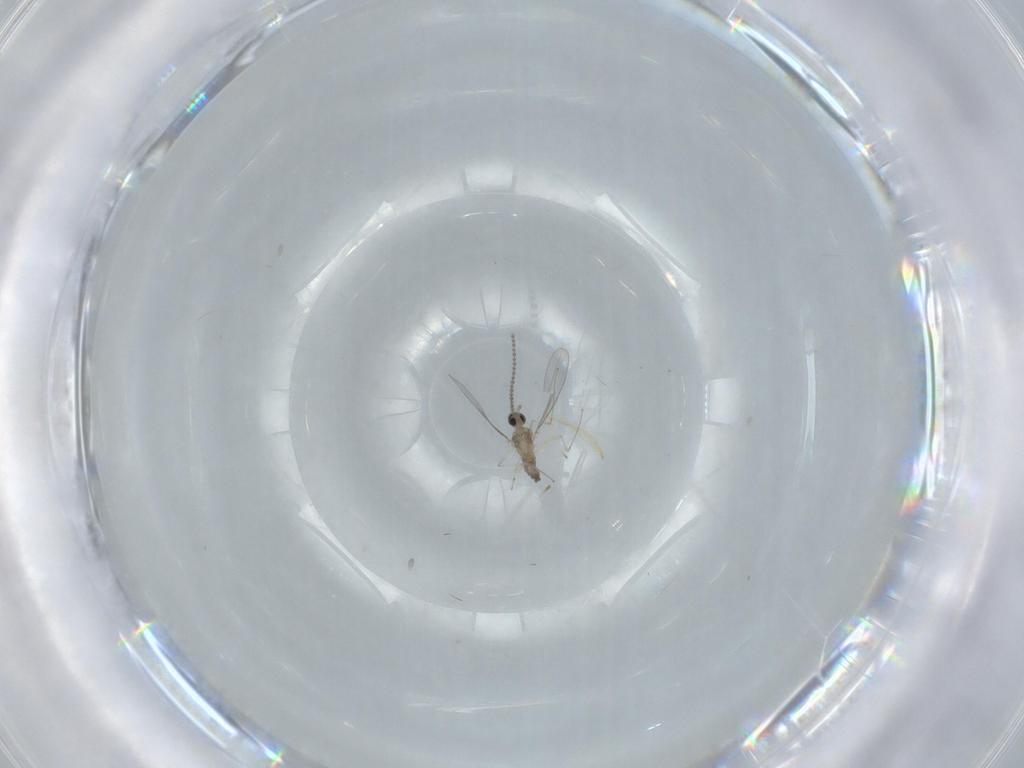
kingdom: Animalia
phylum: Arthropoda
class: Insecta
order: Diptera
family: Cecidomyiidae
